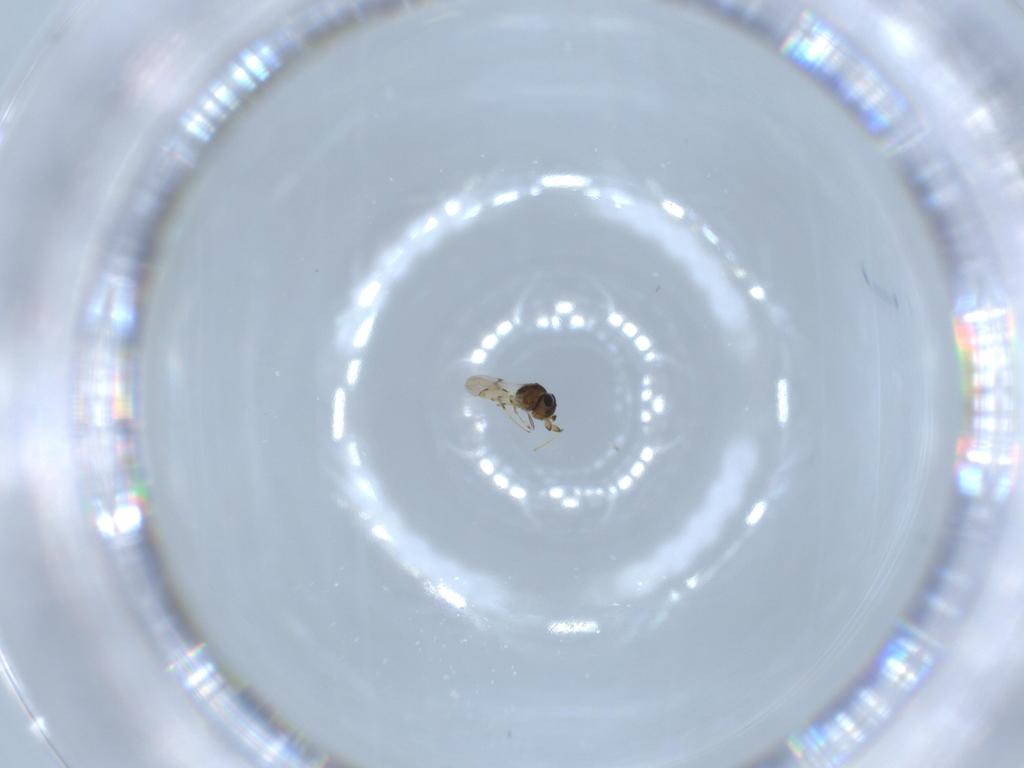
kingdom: Animalia
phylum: Arthropoda
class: Insecta
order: Hymenoptera
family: Scelionidae
